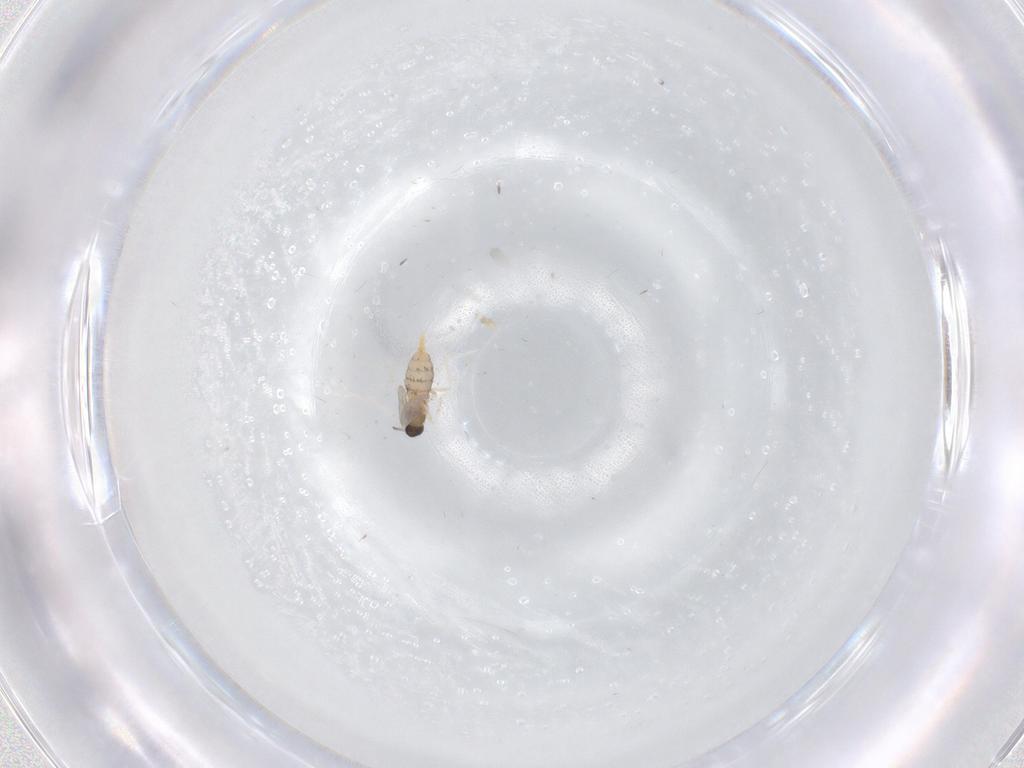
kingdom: Animalia
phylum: Arthropoda
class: Insecta
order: Diptera
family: Cecidomyiidae
